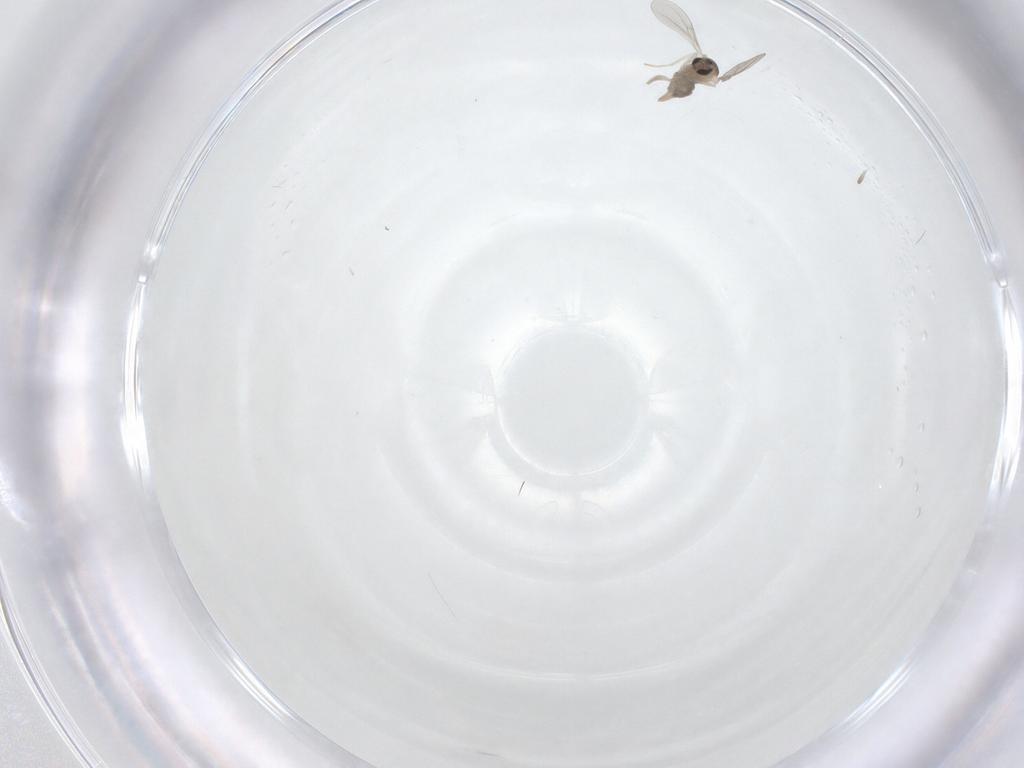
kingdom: Animalia
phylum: Arthropoda
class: Insecta
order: Diptera
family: Cecidomyiidae
